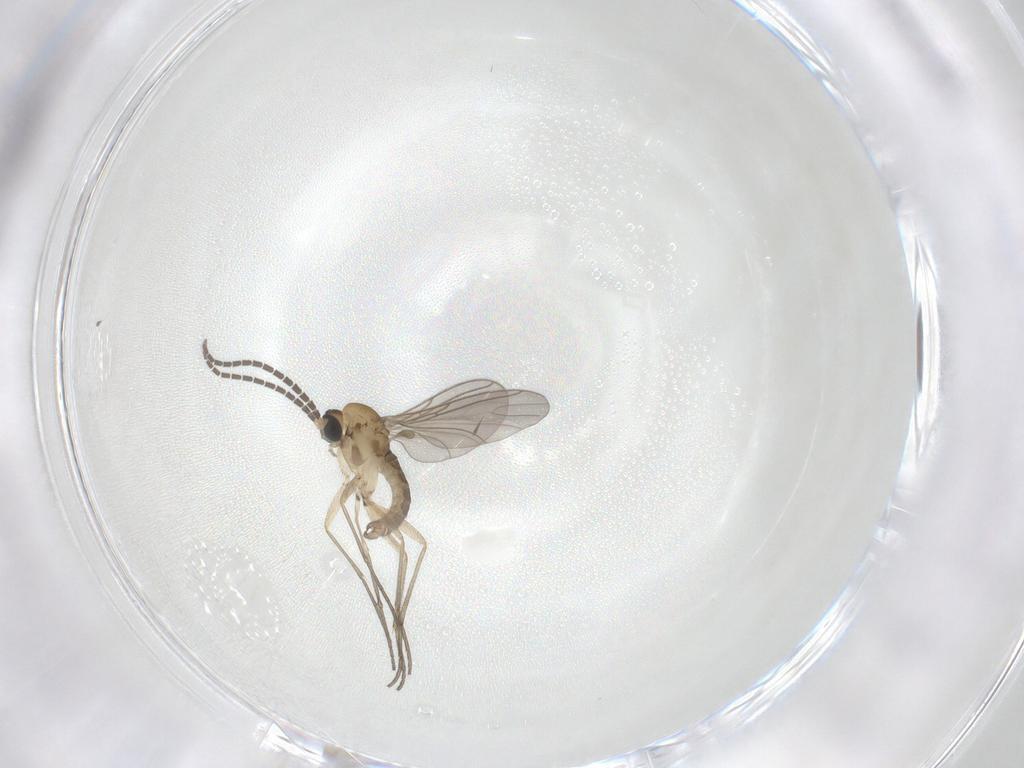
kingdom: Animalia
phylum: Arthropoda
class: Insecta
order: Diptera
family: Sciaridae
